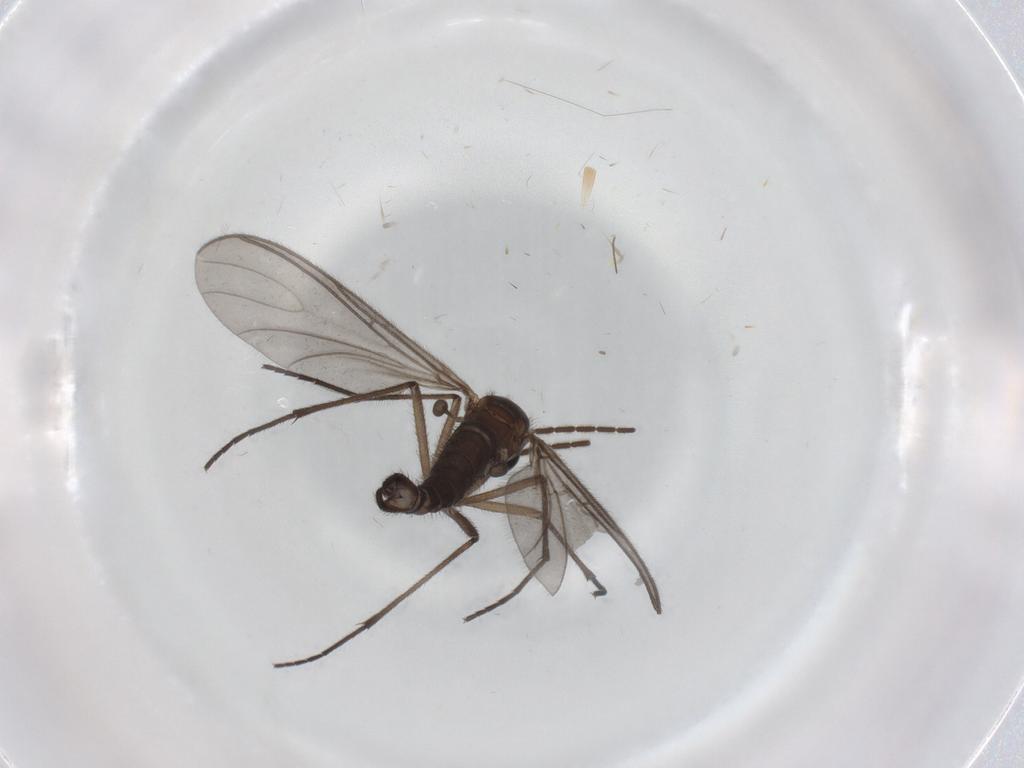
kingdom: Animalia
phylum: Arthropoda
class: Insecta
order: Diptera
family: Sciaridae
